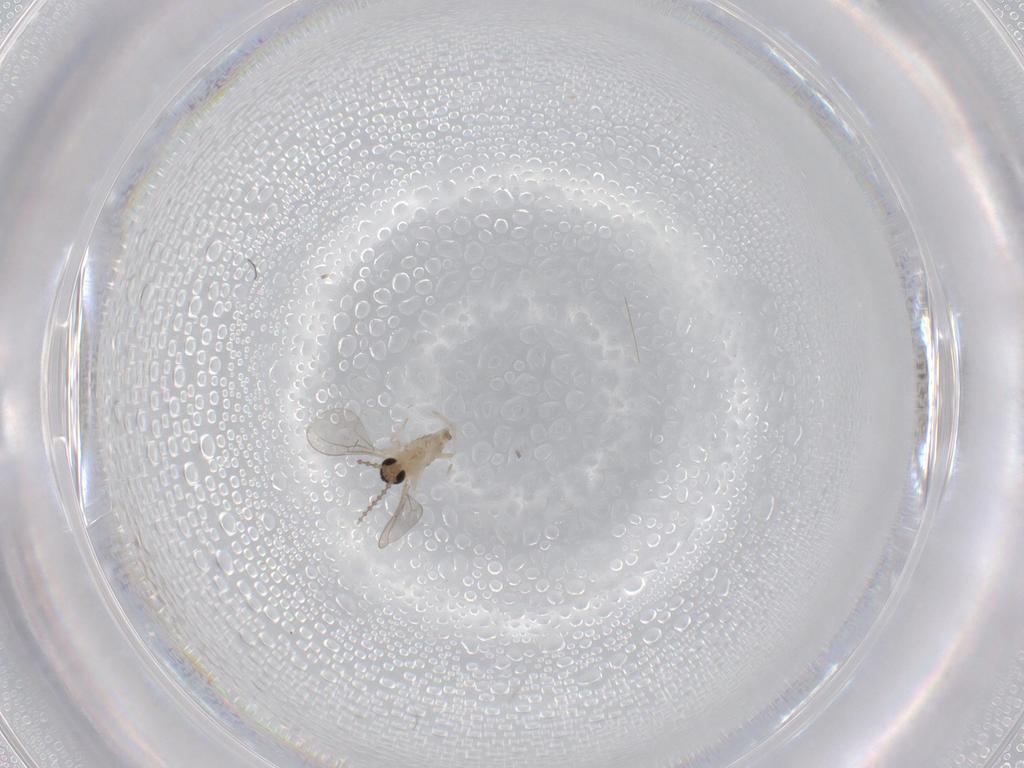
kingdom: Animalia
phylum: Arthropoda
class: Insecta
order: Diptera
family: Cecidomyiidae
